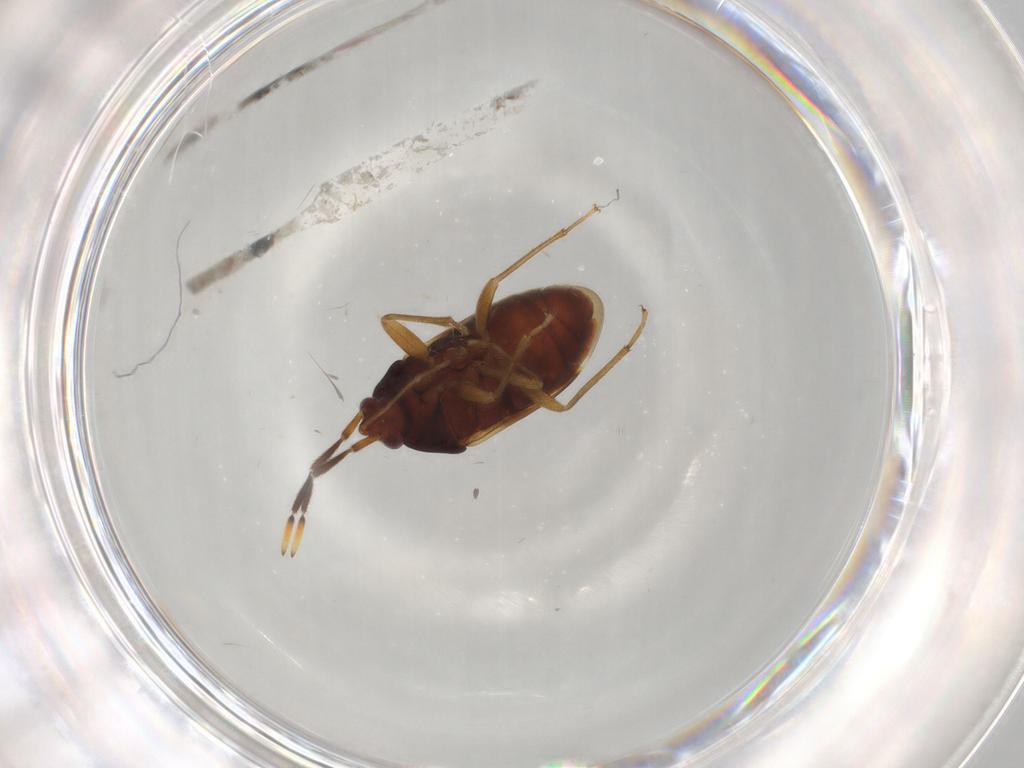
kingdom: Animalia
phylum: Arthropoda
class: Insecta
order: Hemiptera
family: Rhyparochromidae
